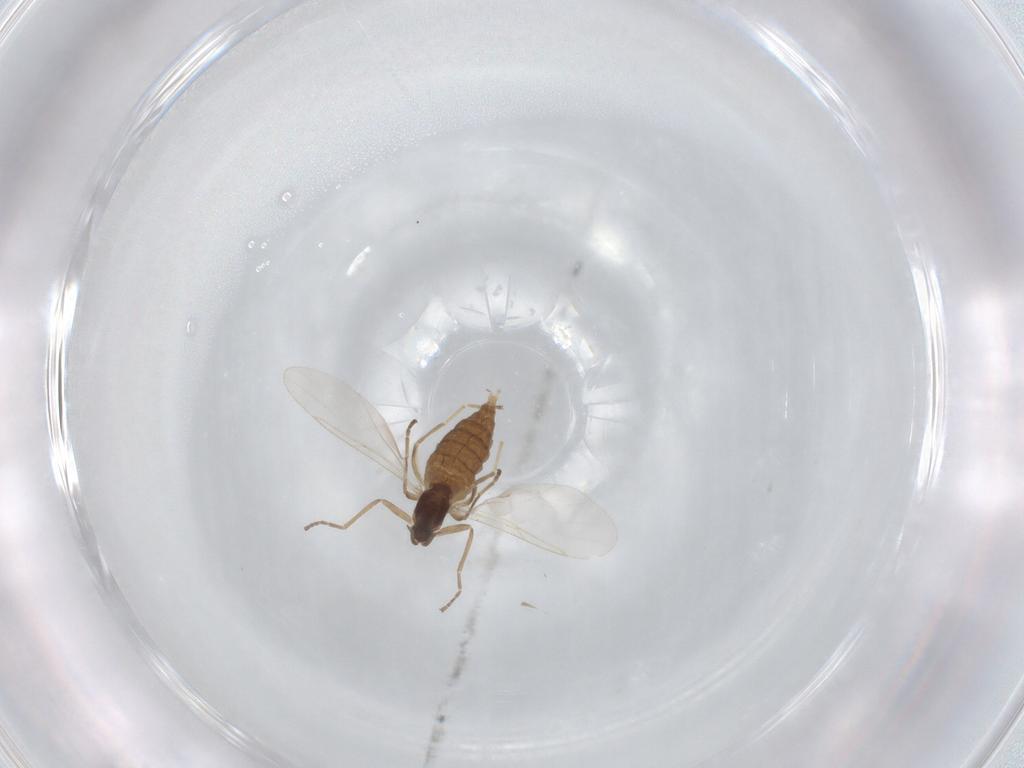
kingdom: Animalia
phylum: Arthropoda
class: Insecta
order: Diptera
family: Cecidomyiidae
